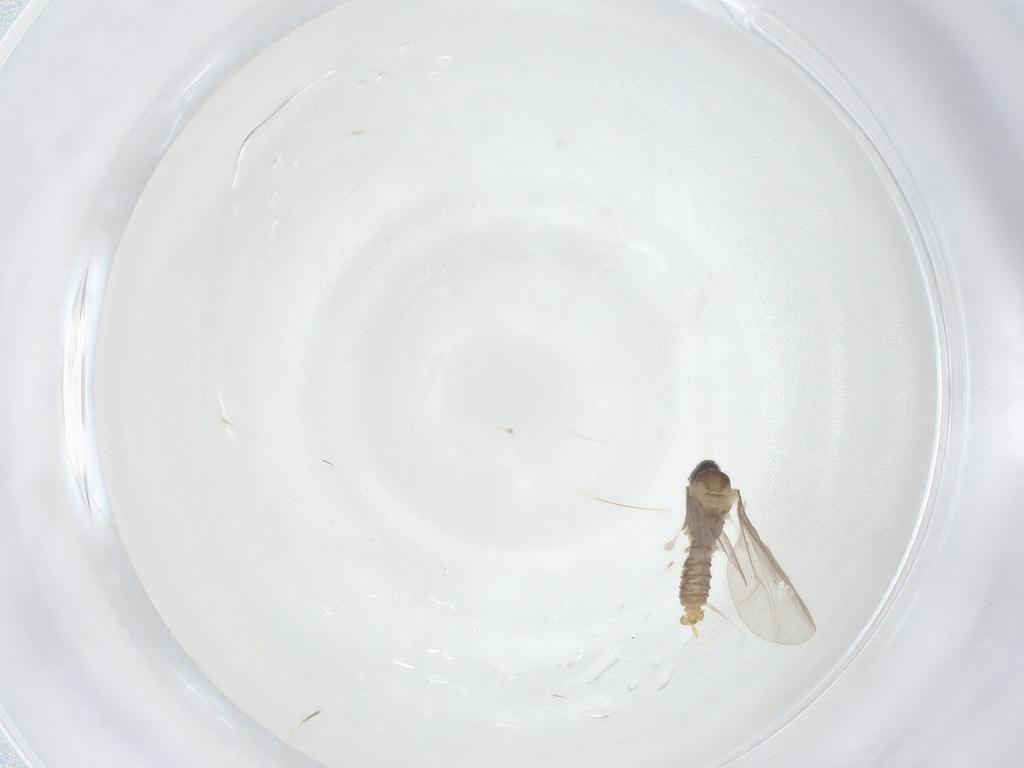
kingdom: Animalia
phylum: Arthropoda
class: Insecta
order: Diptera
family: Cecidomyiidae
